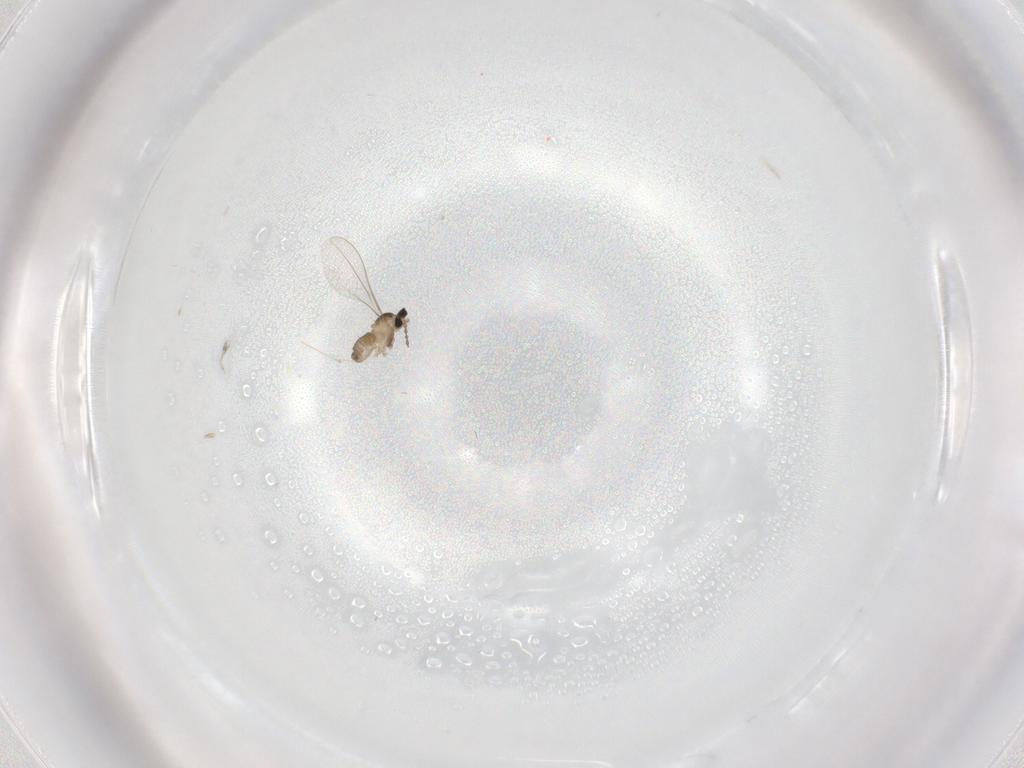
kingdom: Animalia
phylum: Arthropoda
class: Insecta
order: Diptera
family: Cecidomyiidae
